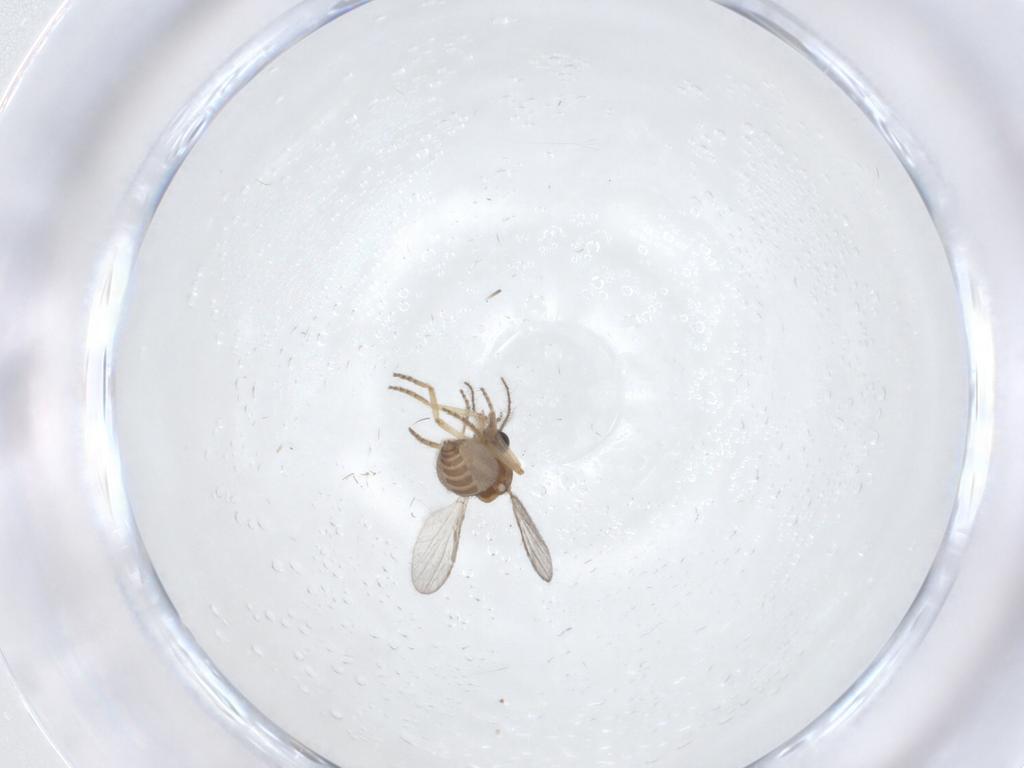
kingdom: Animalia
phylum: Arthropoda
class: Insecta
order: Diptera
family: Ceratopogonidae
